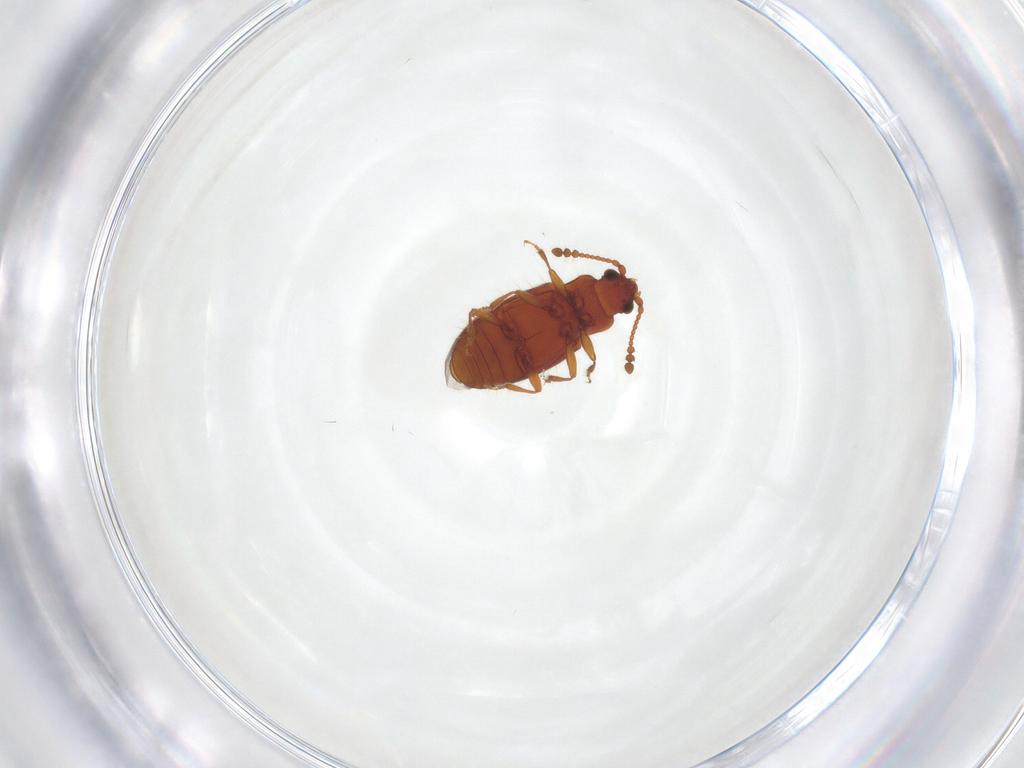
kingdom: Animalia
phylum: Arthropoda
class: Insecta
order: Coleoptera
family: Cryptophagidae
